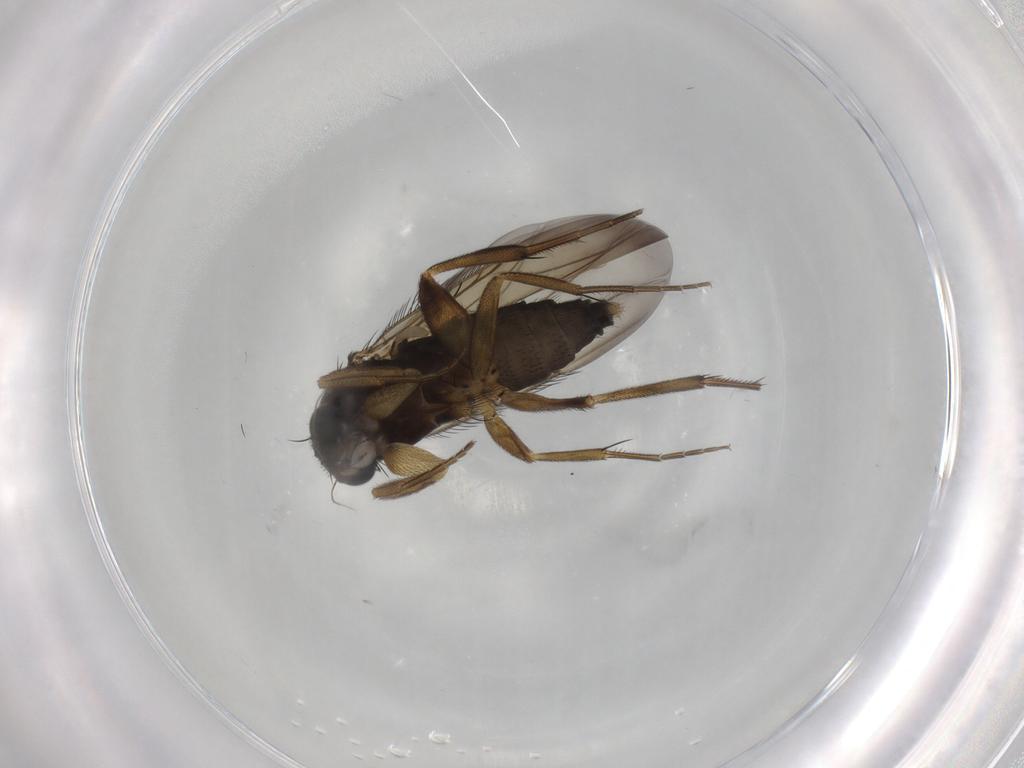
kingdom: Animalia
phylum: Arthropoda
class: Insecta
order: Diptera
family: Phoridae
